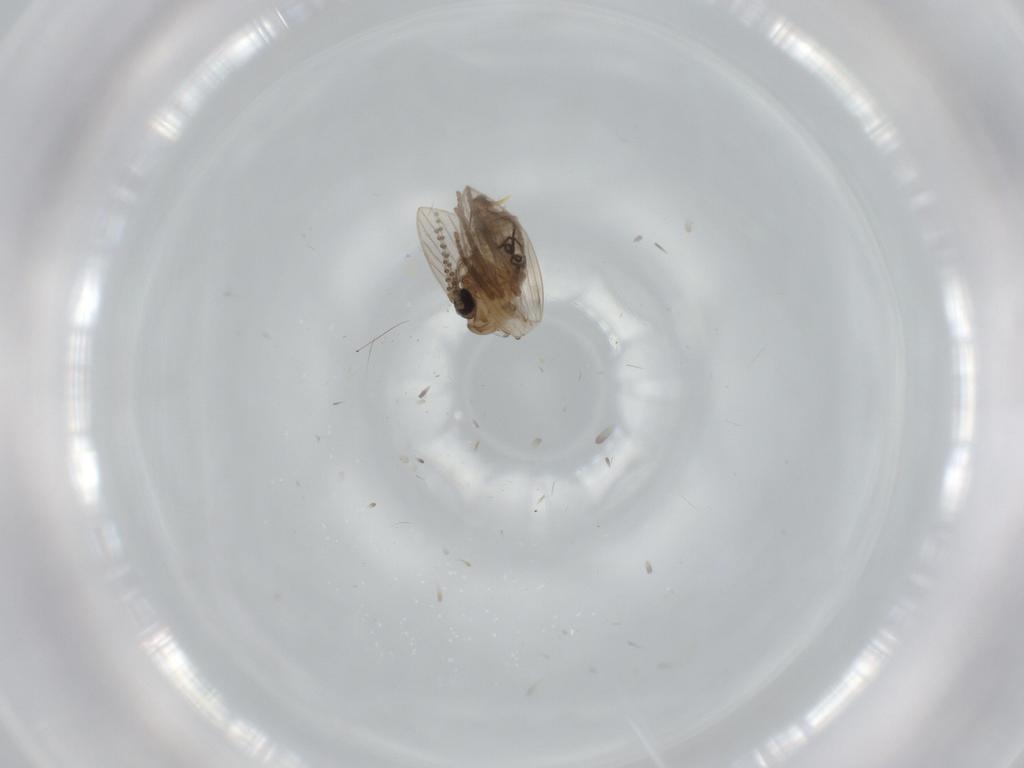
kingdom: Animalia
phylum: Arthropoda
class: Insecta
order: Diptera
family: Psychodidae
